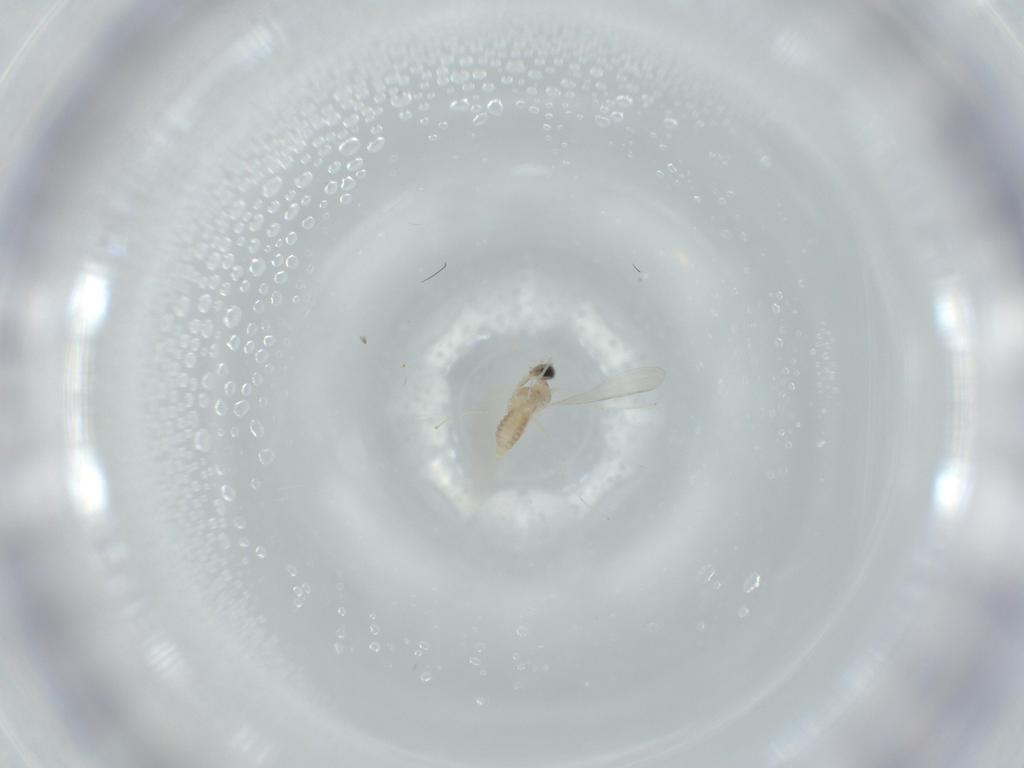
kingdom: Animalia
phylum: Arthropoda
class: Insecta
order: Diptera
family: Cecidomyiidae
